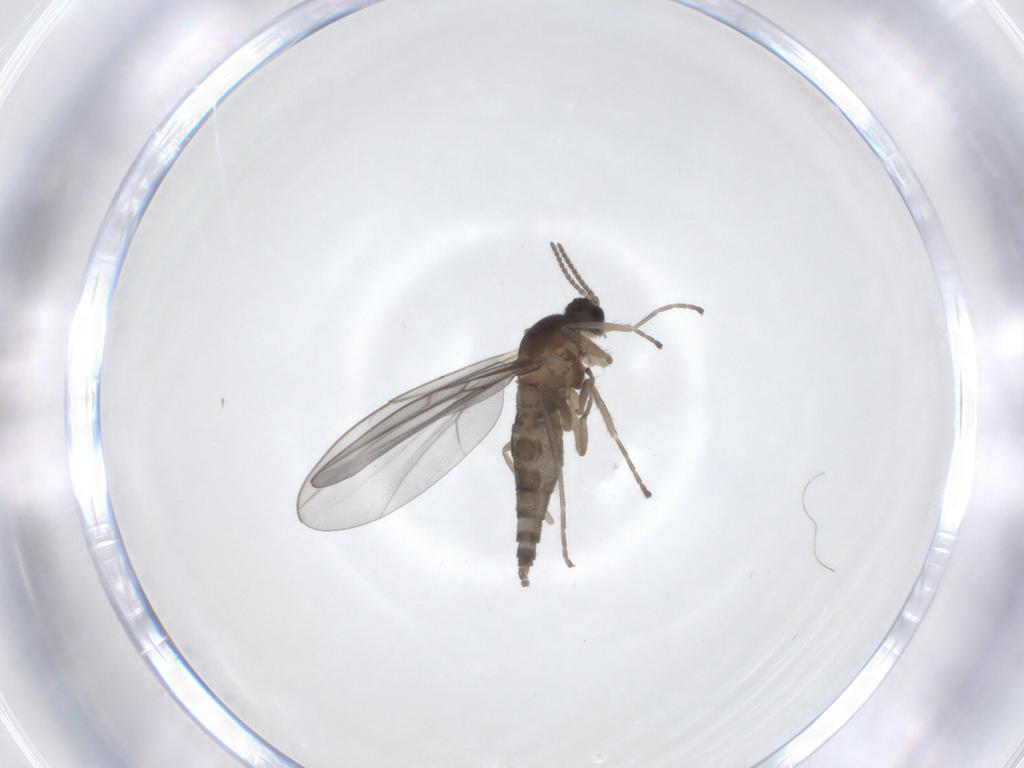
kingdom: Animalia
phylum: Arthropoda
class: Insecta
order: Diptera
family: Cecidomyiidae
